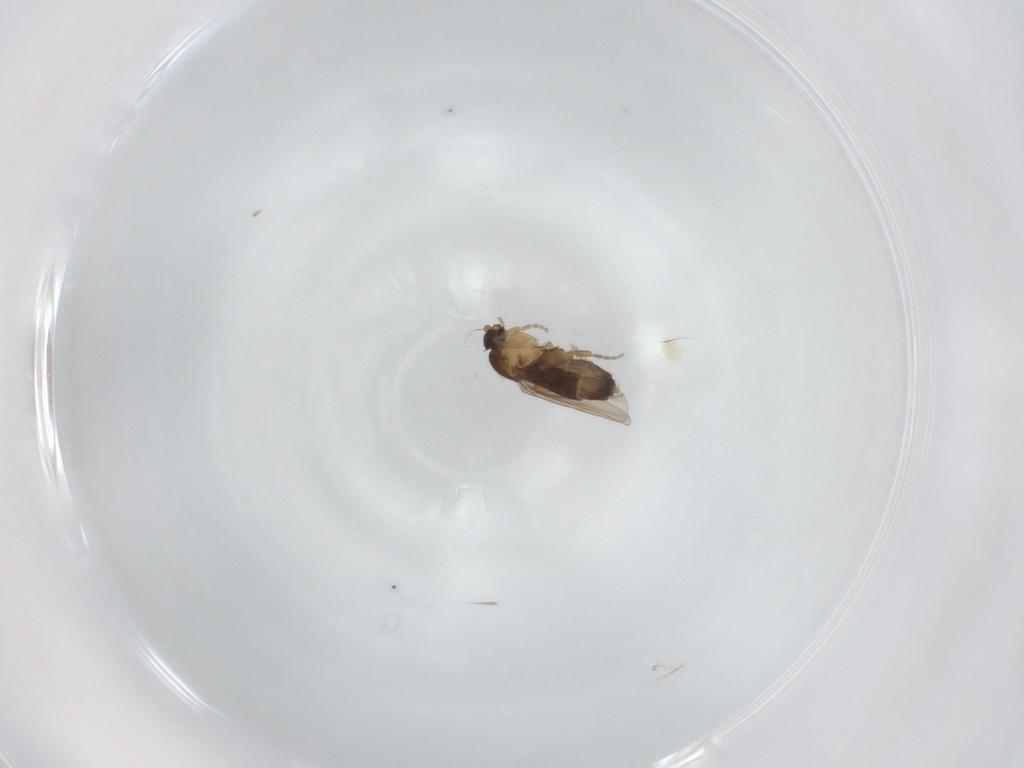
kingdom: Animalia
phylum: Arthropoda
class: Insecta
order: Diptera
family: Phoridae
